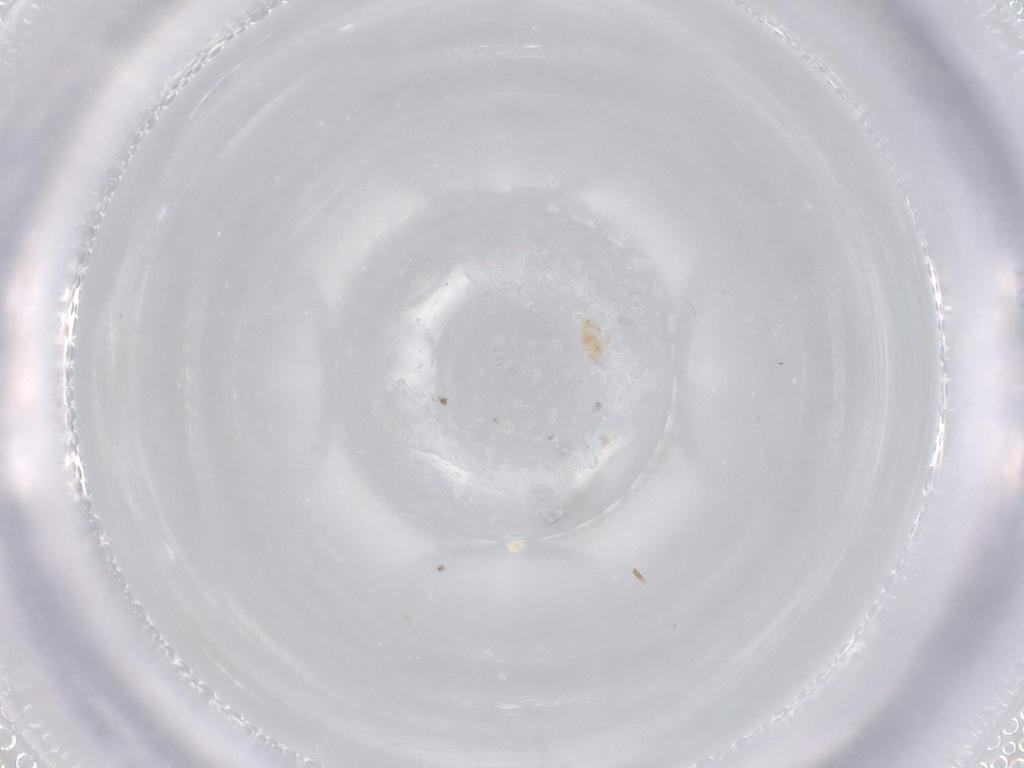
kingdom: Animalia
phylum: Arthropoda
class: Arachnida
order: Trombidiformes
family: Microtrombidiidae
